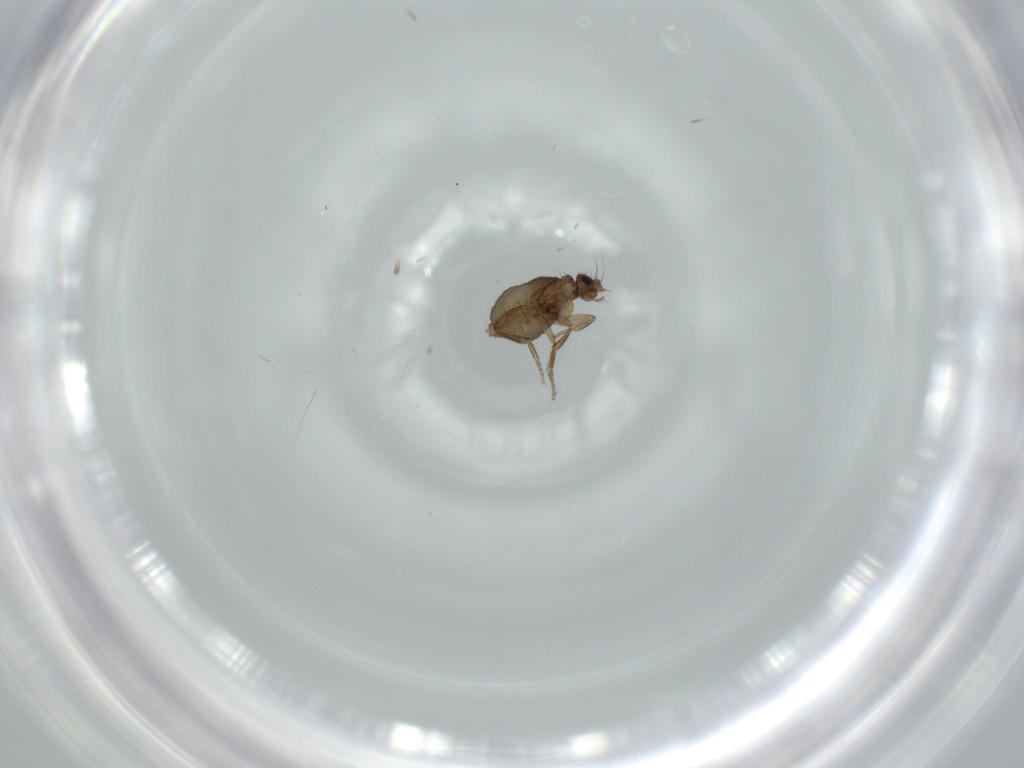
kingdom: Animalia
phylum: Arthropoda
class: Insecta
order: Diptera
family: Phoridae
